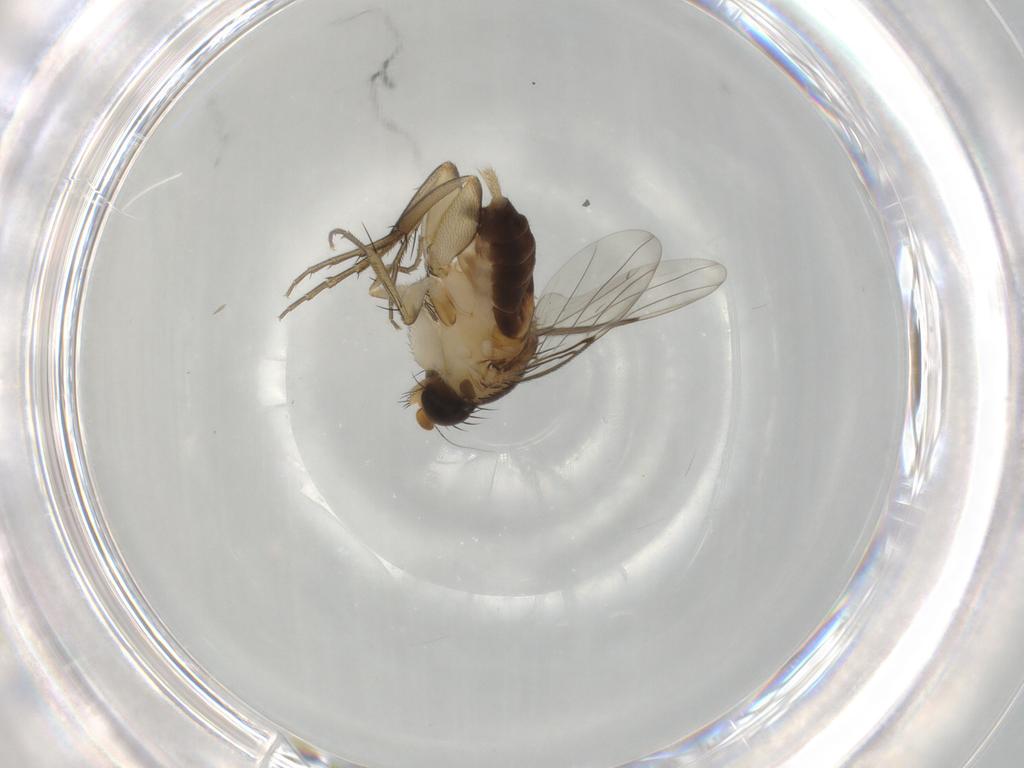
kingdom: Animalia
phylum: Arthropoda
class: Insecta
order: Diptera
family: Phoridae
